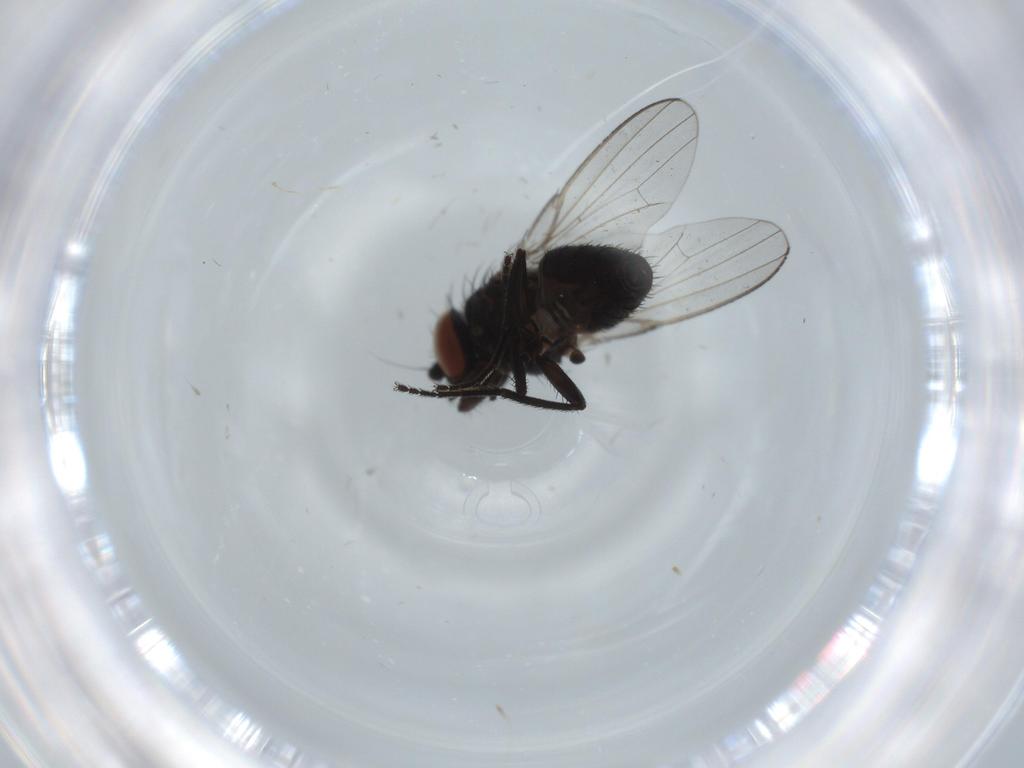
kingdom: Animalia
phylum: Arthropoda
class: Insecta
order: Diptera
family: Milichiidae
